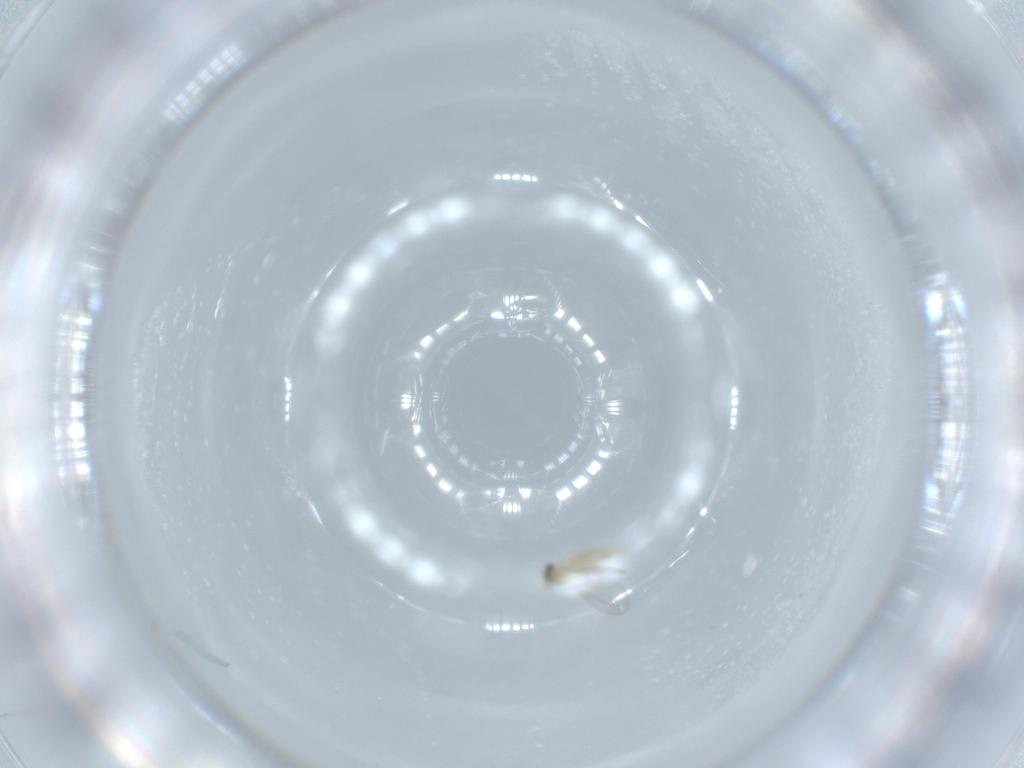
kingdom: Animalia
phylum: Arthropoda
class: Insecta
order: Diptera
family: Cecidomyiidae
